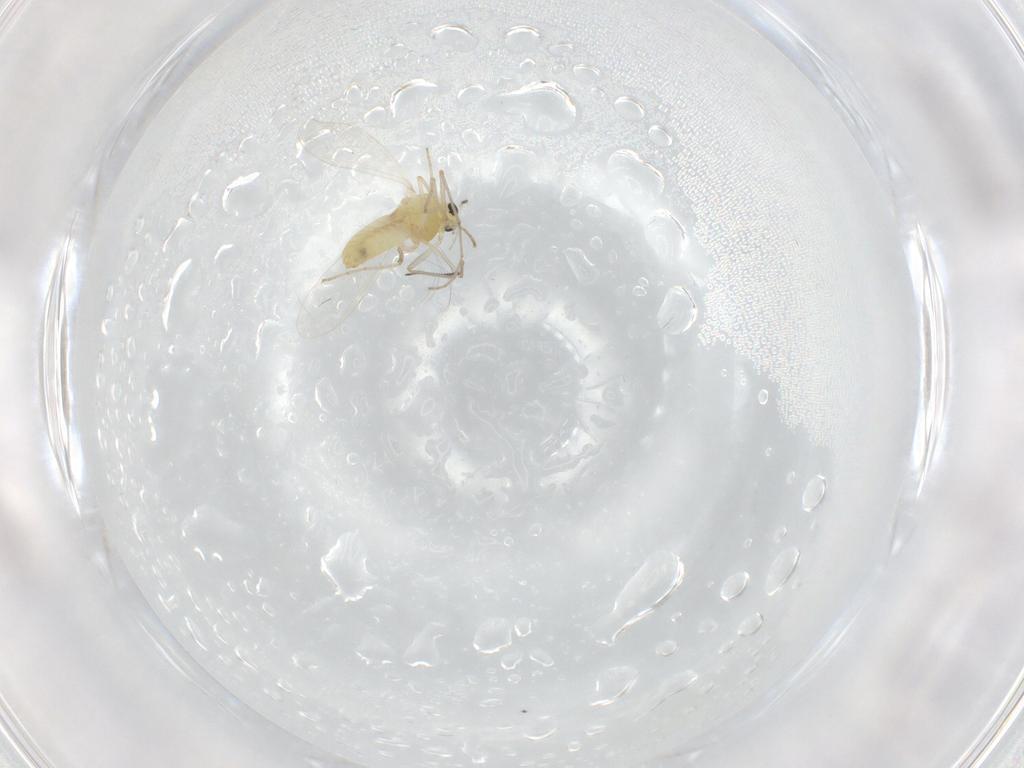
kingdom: Animalia
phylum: Arthropoda
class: Insecta
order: Diptera
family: Chironomidae
